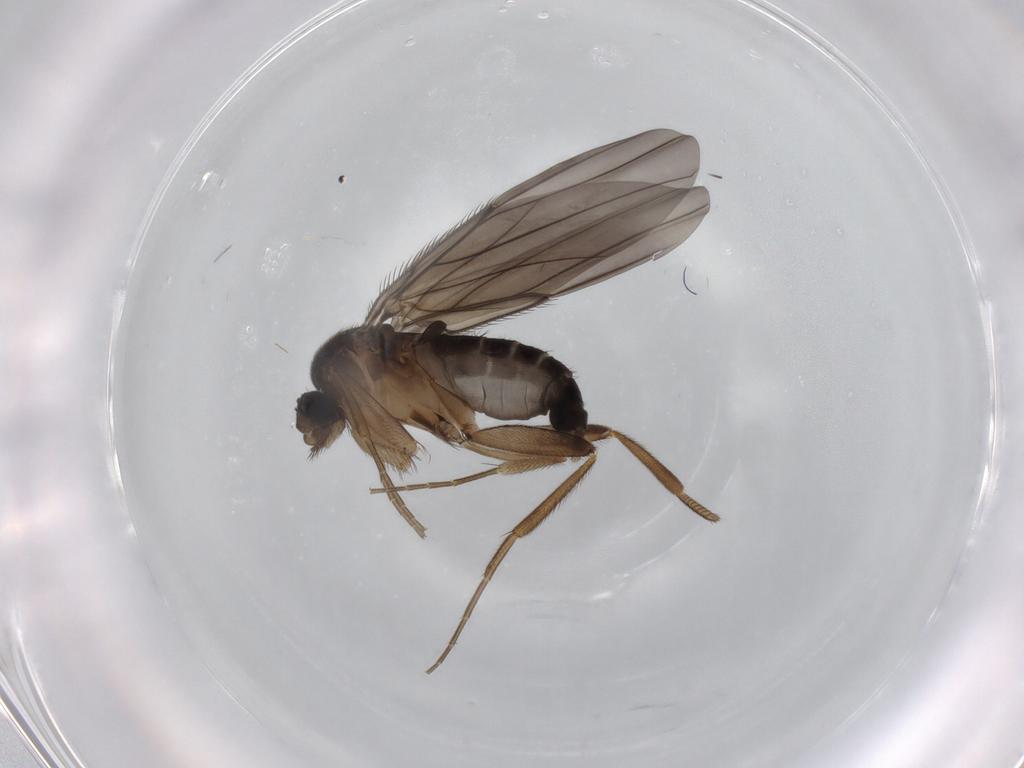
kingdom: Animalia
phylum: Arthropoda
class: Insecta
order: Diptera
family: Phoridae
